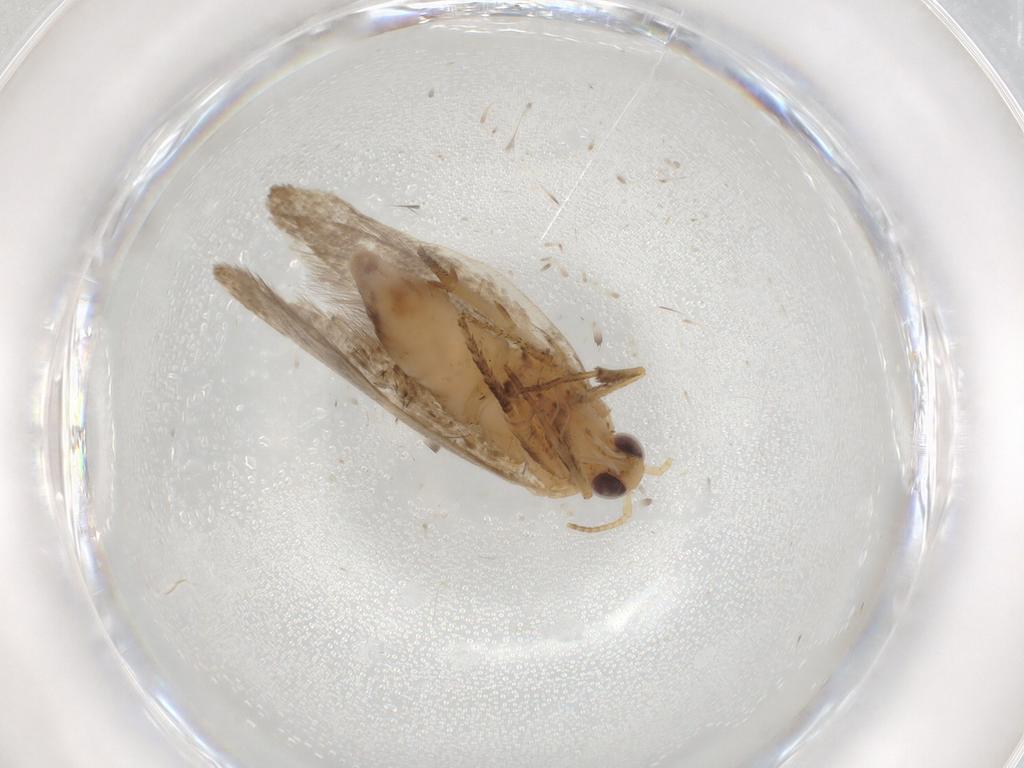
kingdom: Animalia
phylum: Arthropoda
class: Insecta
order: Lepidoptera
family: Ypsolophidae
